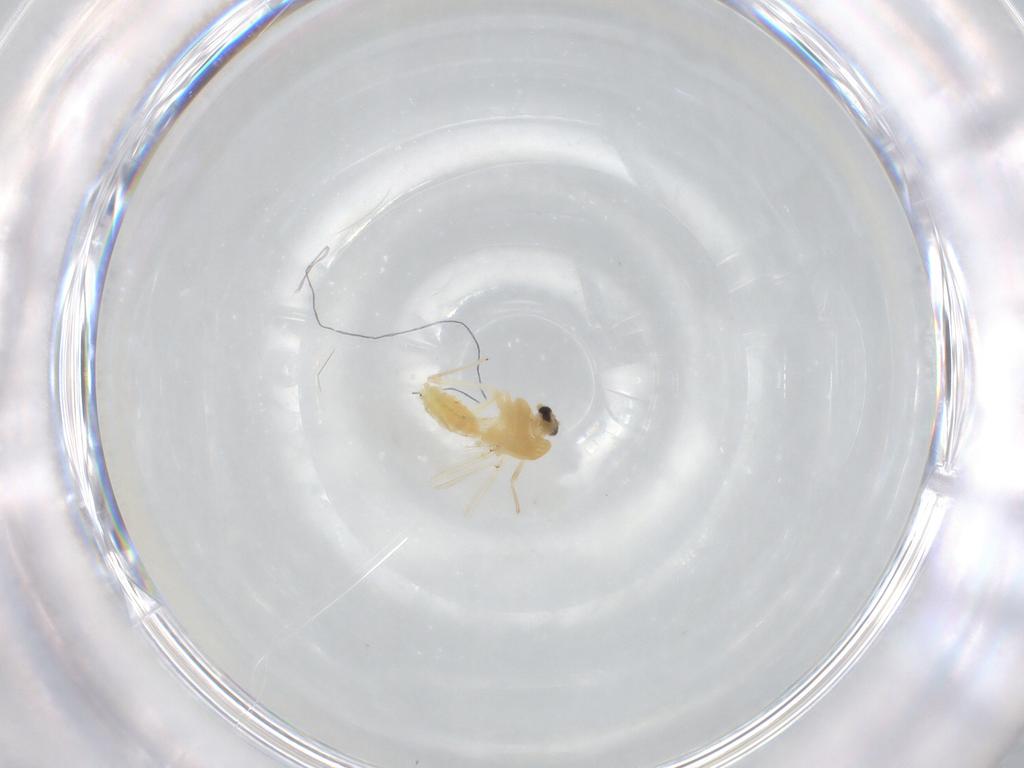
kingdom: Animalia
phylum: Arthropoda
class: Insecta
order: Diptera
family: Chironomidae
